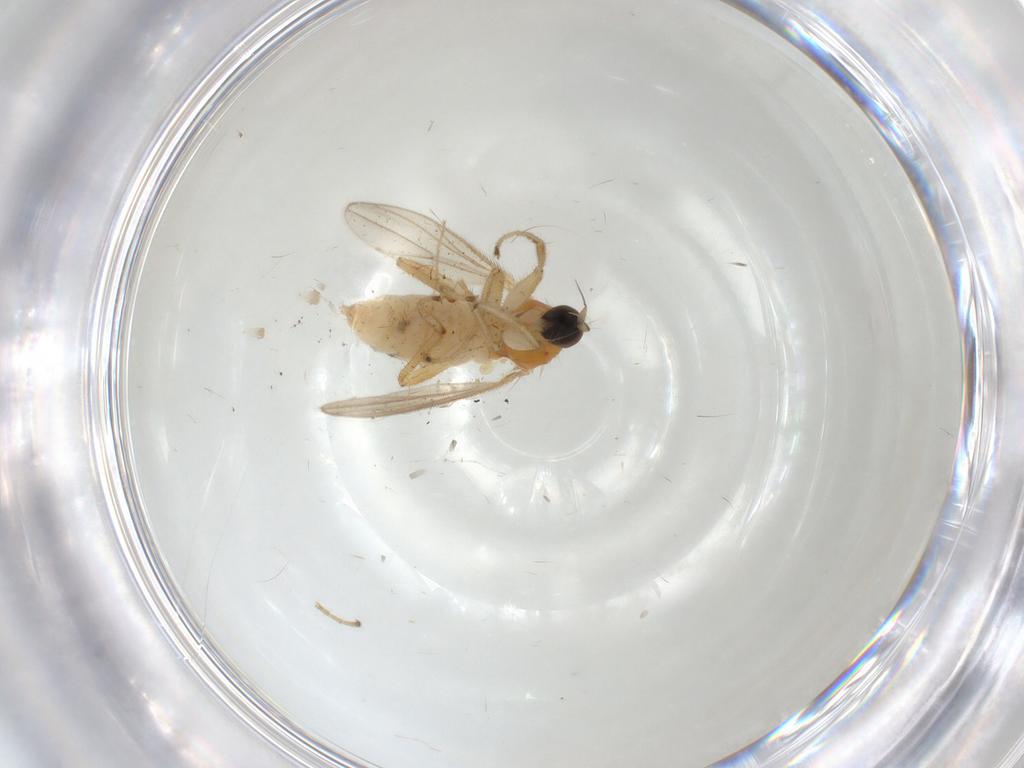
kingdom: Animalia
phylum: Arthropoda
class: Insecta
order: Diptera
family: Hybotidae
